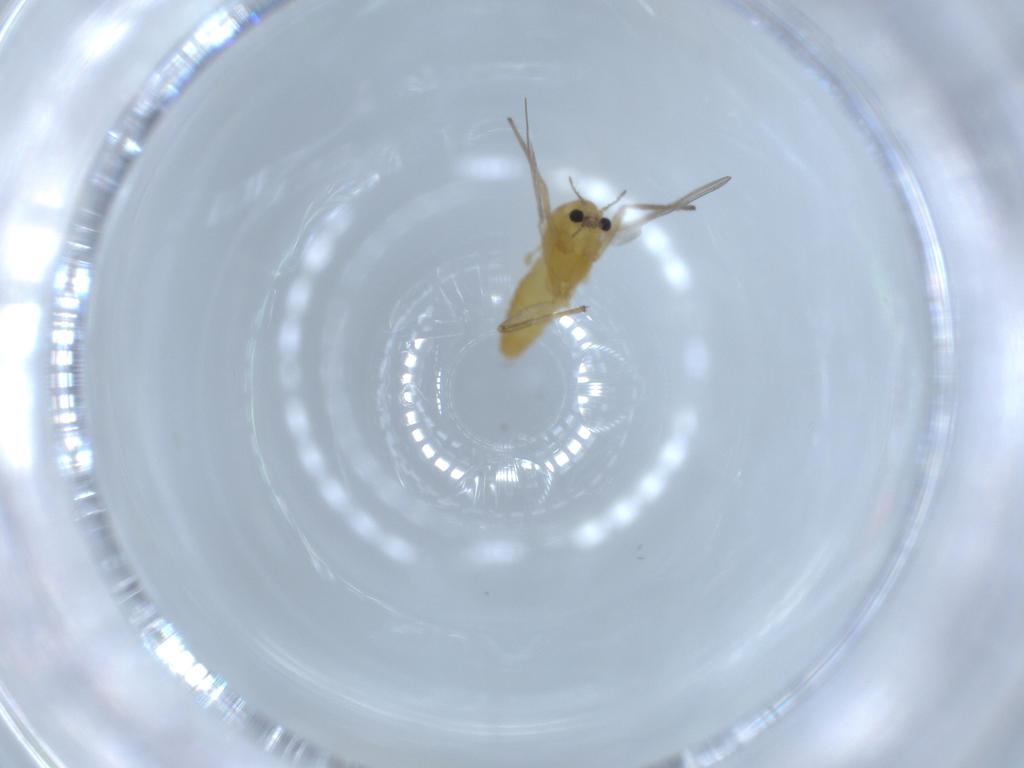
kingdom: Animalia
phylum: Arthropoda
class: Insecta
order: Diptera
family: Chironomidae
